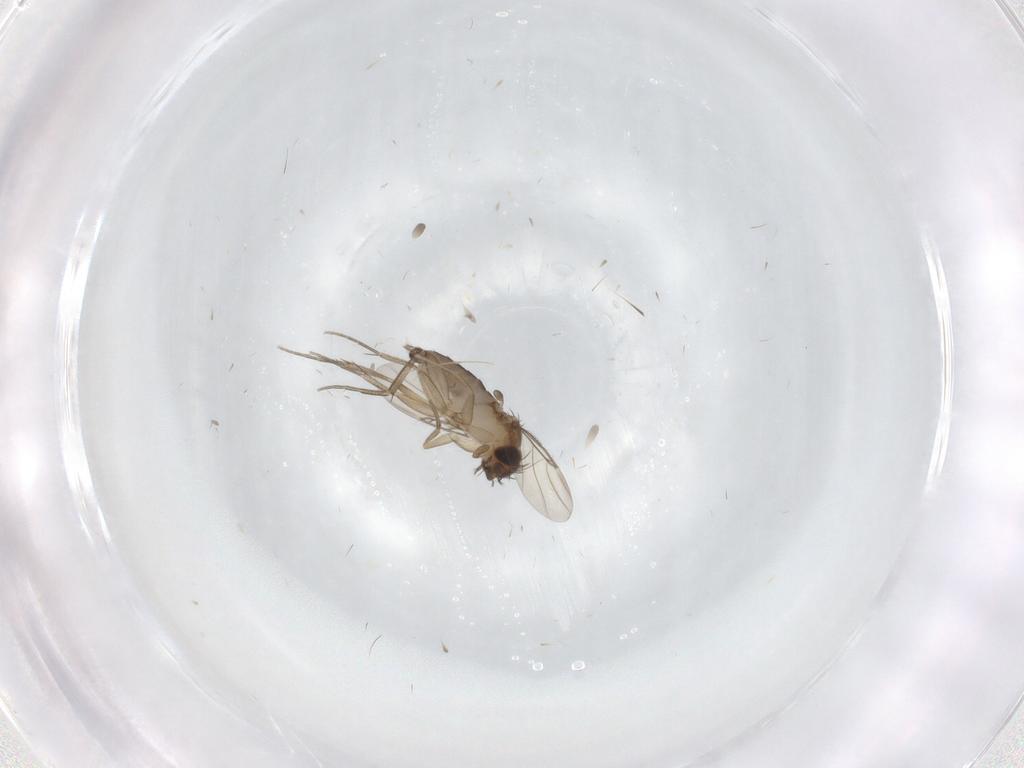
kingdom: Animalia
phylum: Arthropoda
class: Insecta
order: Diptera
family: Phoridae
